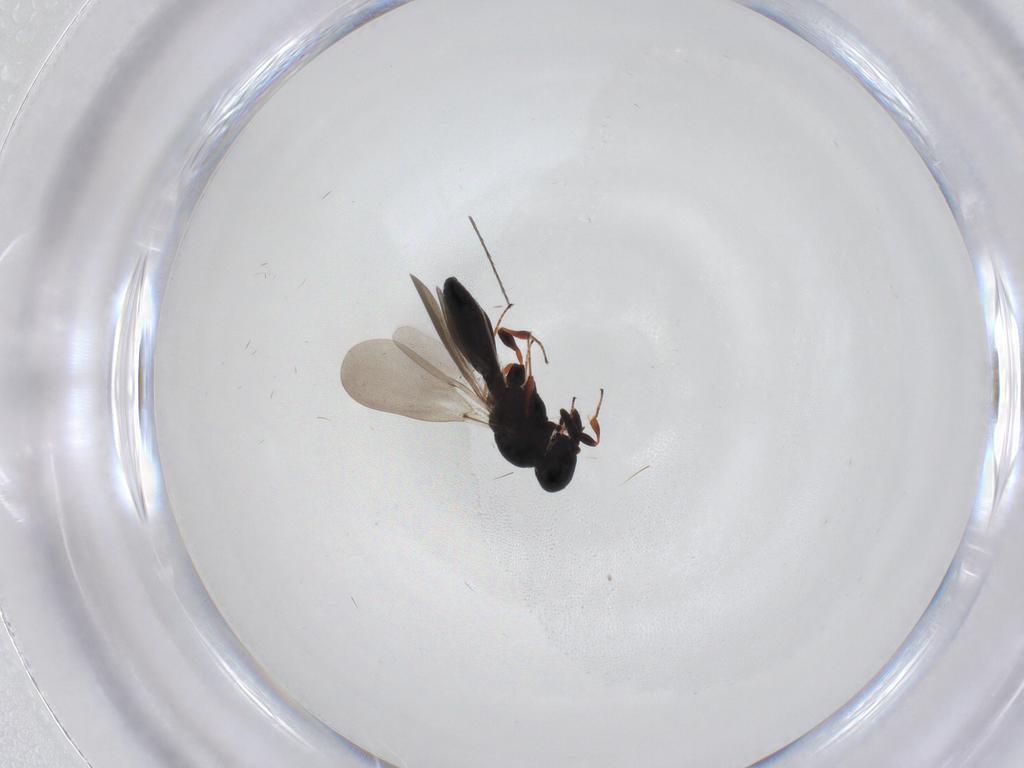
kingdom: Animalia
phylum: Arthropoda
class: Insecta
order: Hymenoptera
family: Platygastridae
